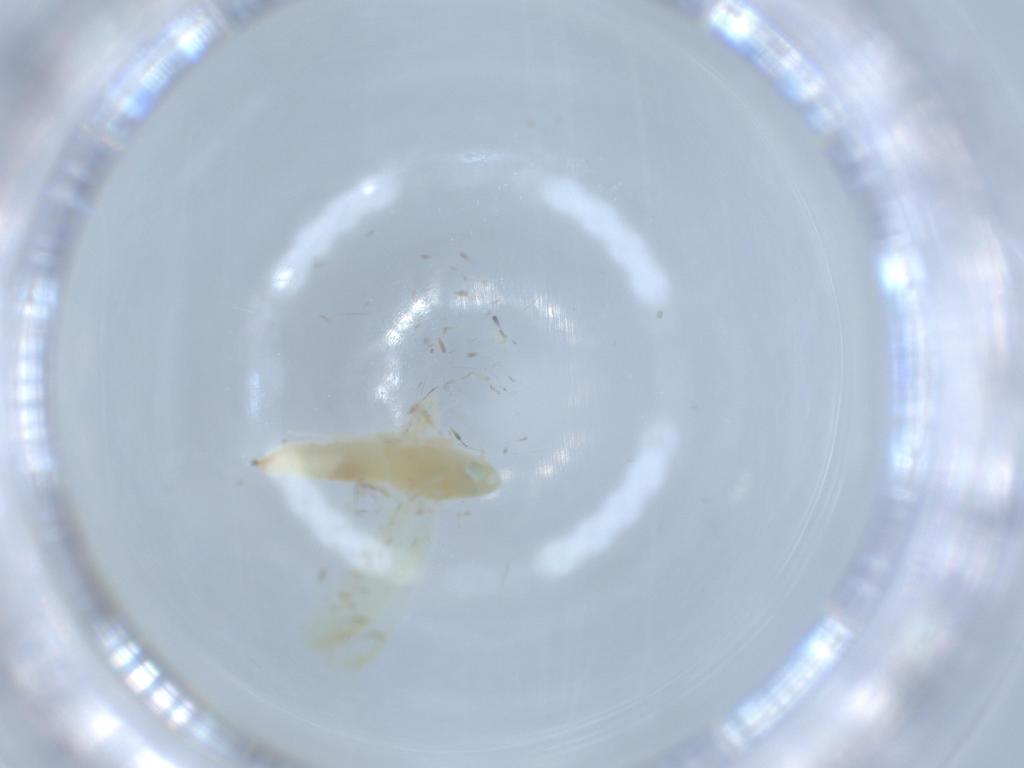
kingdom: Animalia
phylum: Arthropoda
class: Insecta
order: Hemiptera
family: Cicadellidae
